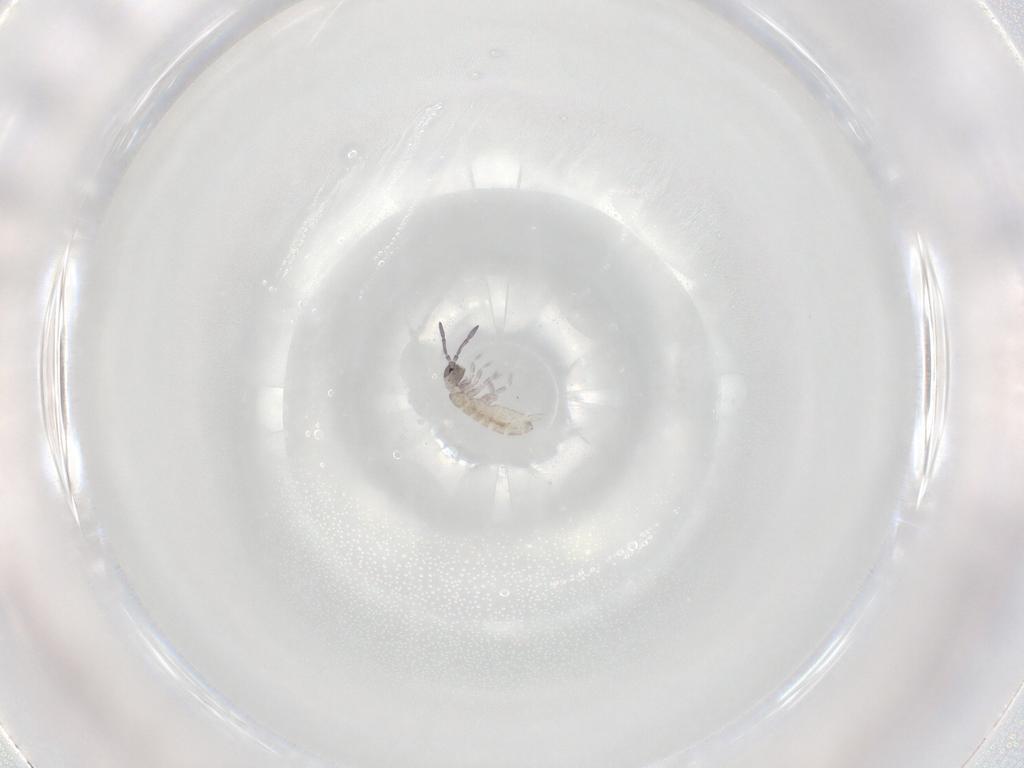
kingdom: Animalia
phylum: Arthropoda
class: Collembola
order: Entomobryomorpha
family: Tomoceridae
